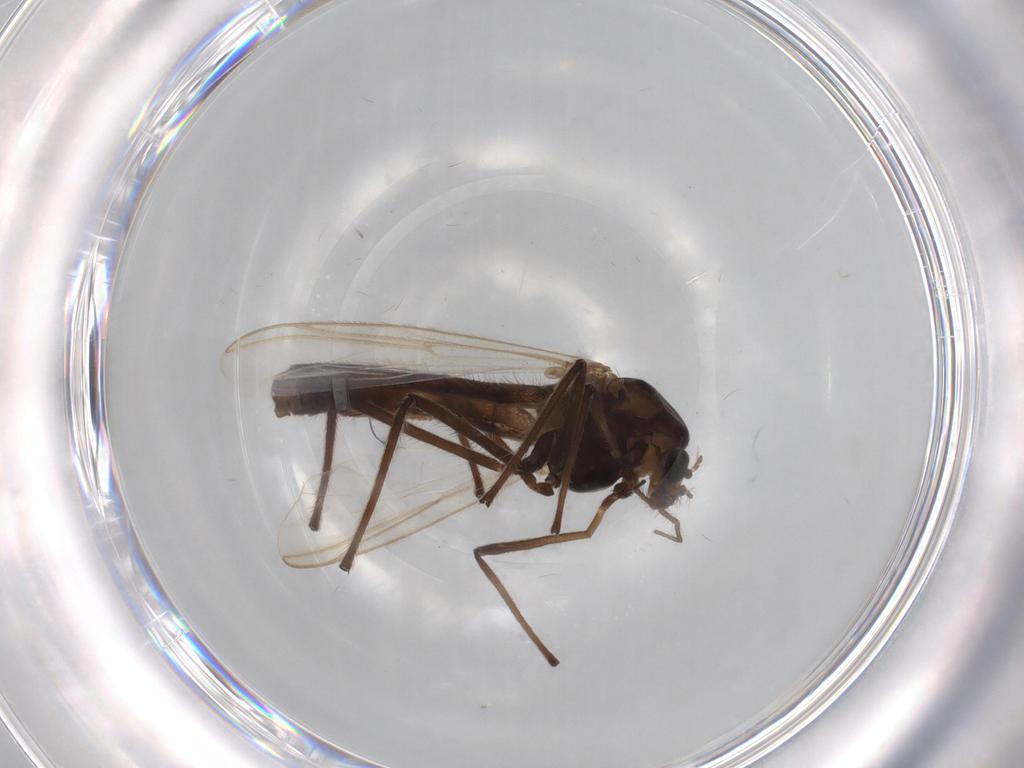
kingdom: Animalia
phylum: Arthropoda
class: Insecta
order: Diptera
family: Chironomidae
